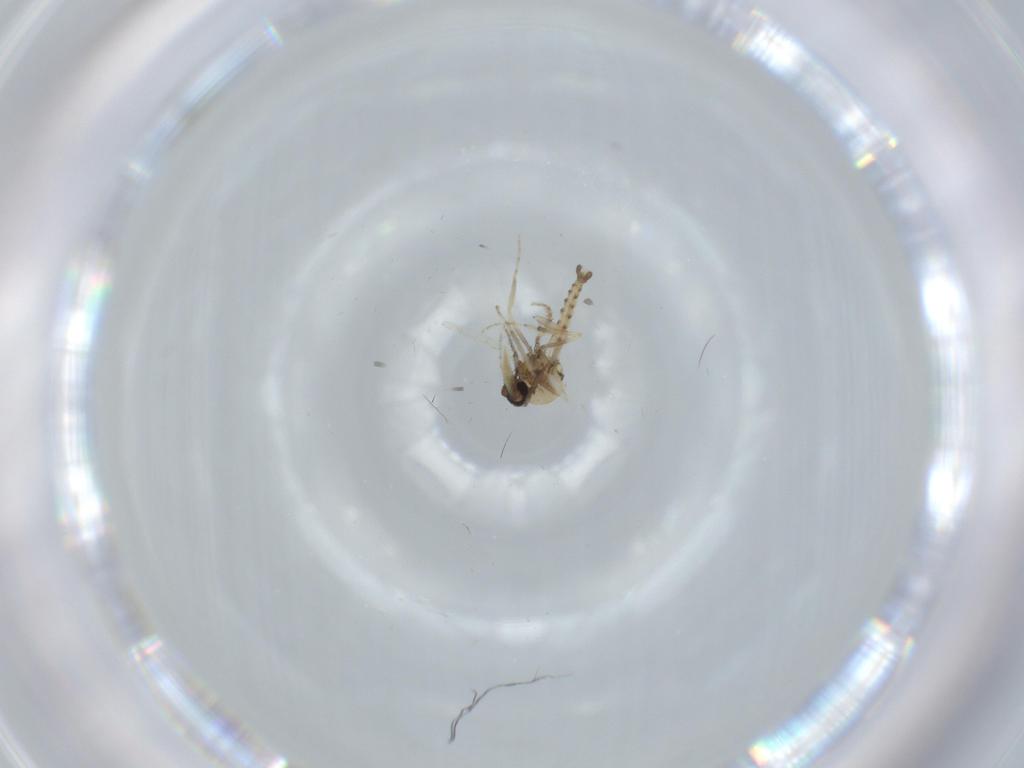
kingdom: Animalia
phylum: Arthropoda
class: Insecta
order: Diptera
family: Ceratopogonidae
